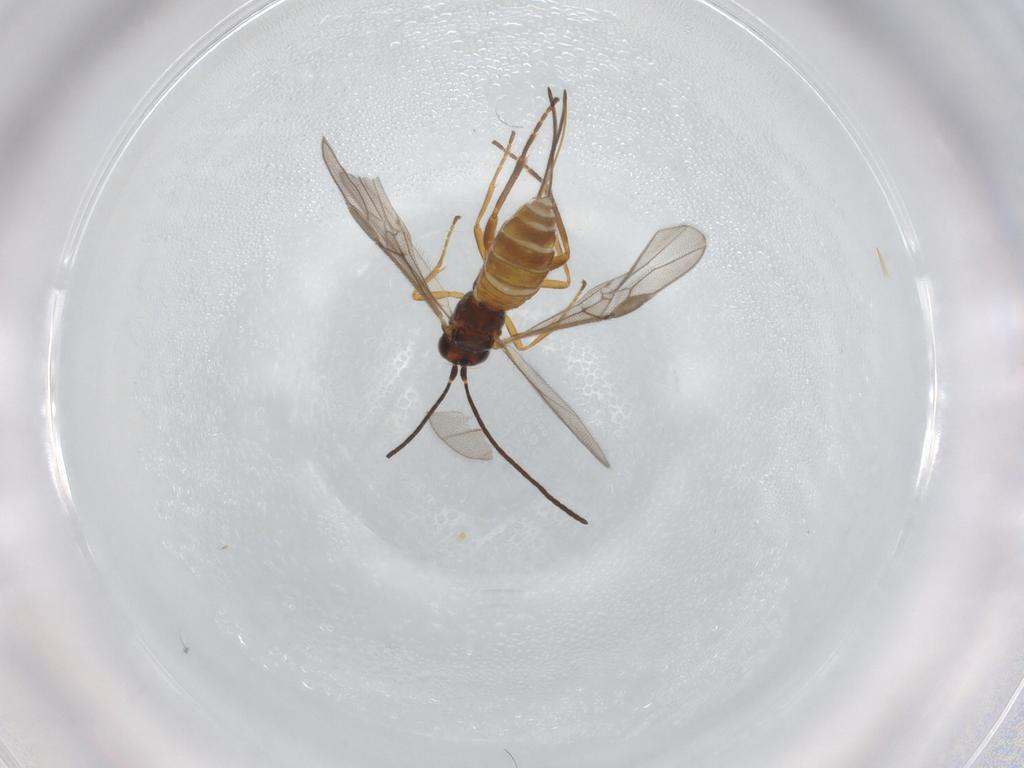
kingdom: Animalia
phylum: Arthropoda
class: Insecta
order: Hymenoptera
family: Braconidae
